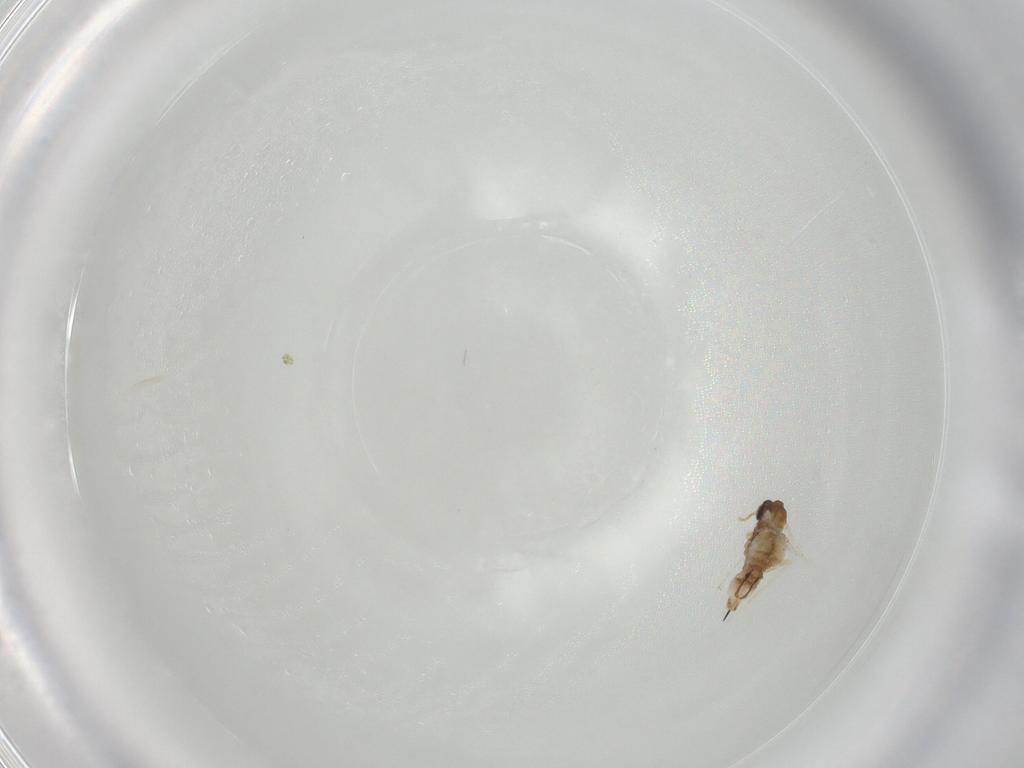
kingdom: Animalia
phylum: Arthropoda
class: Insecta
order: Diptera
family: Cecidomyiidae
